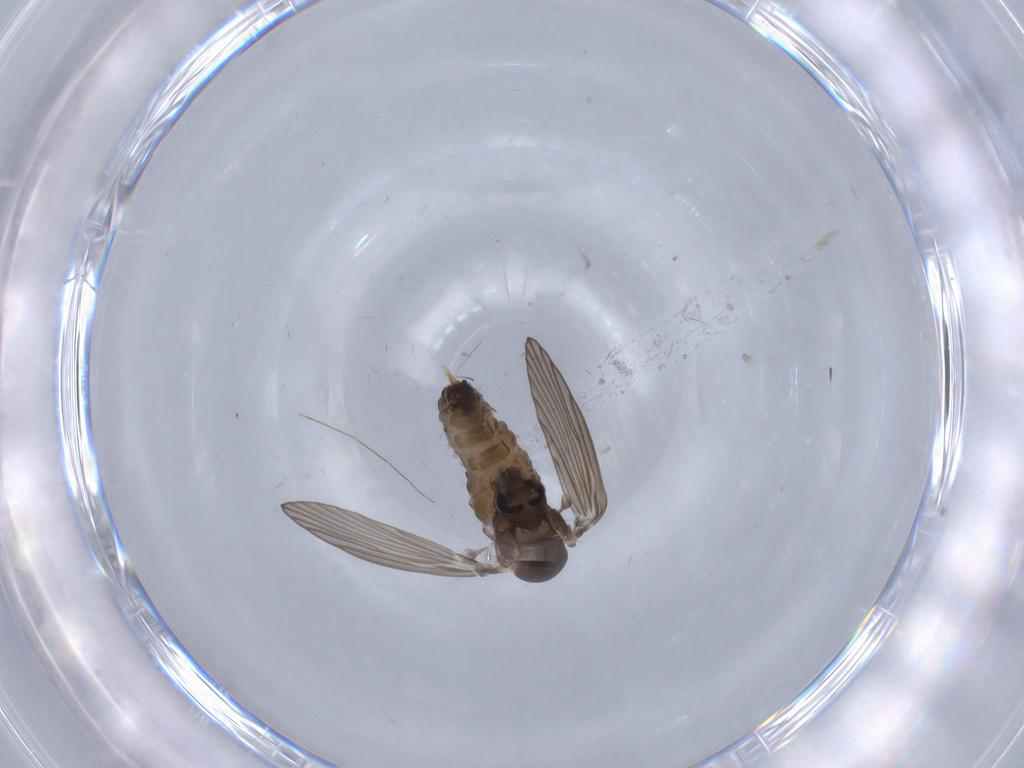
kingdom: Animalia
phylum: Arthropoda
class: Insecta
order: Diptera
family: Psychodidae
